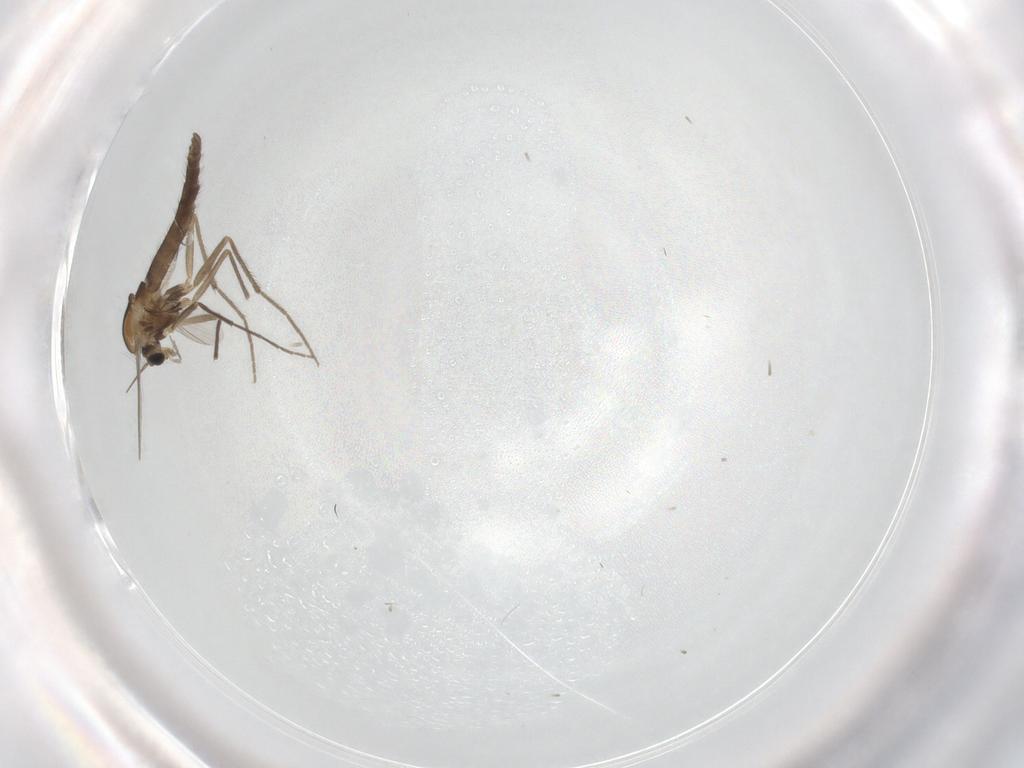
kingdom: Animalia
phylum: Arthropoda
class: Insecta
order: Diptera
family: Chironomidae
